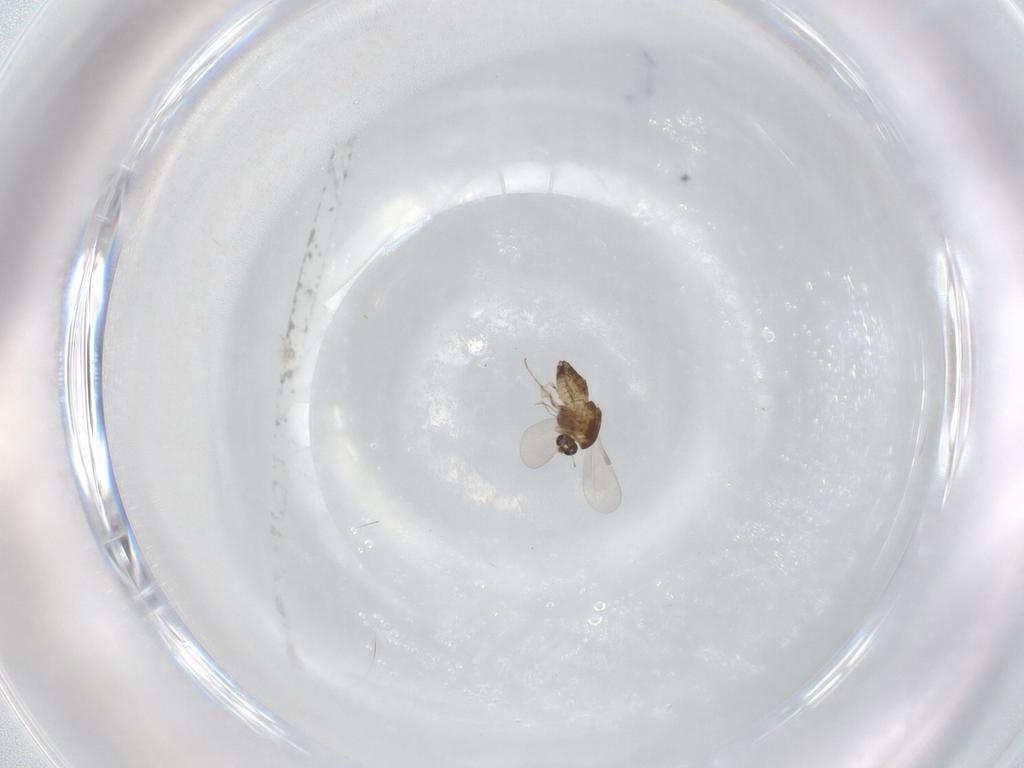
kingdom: Animalia
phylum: Arthropoda
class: Insecta
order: Diptera
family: Chironomidae
